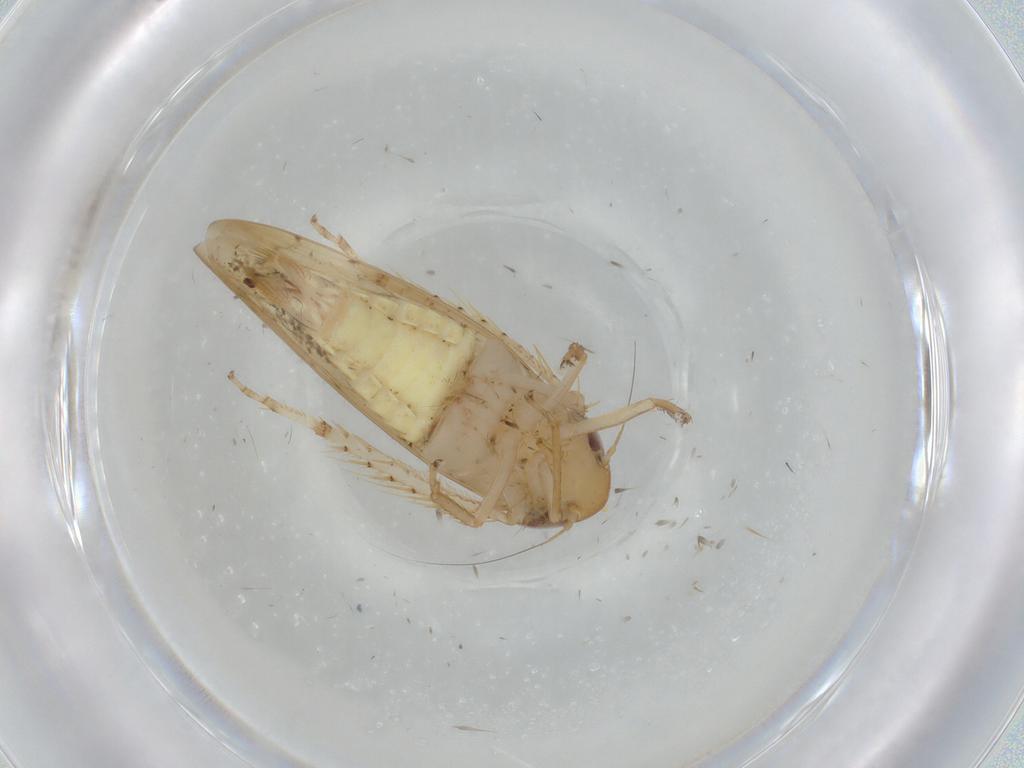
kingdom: Animalia
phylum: Arthropoda
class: Insecta
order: Hemiptera
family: Cicadellidae
